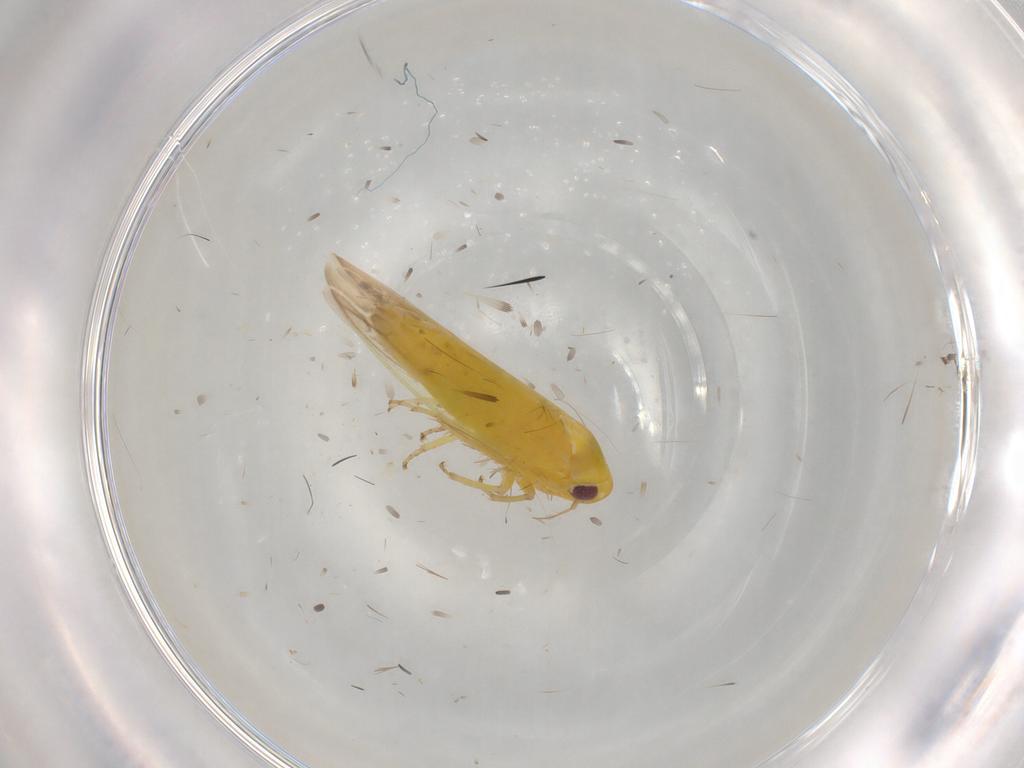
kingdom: Animalia
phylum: Arthropoda
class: Insecta
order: Hemiptera
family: Cicadellidae
